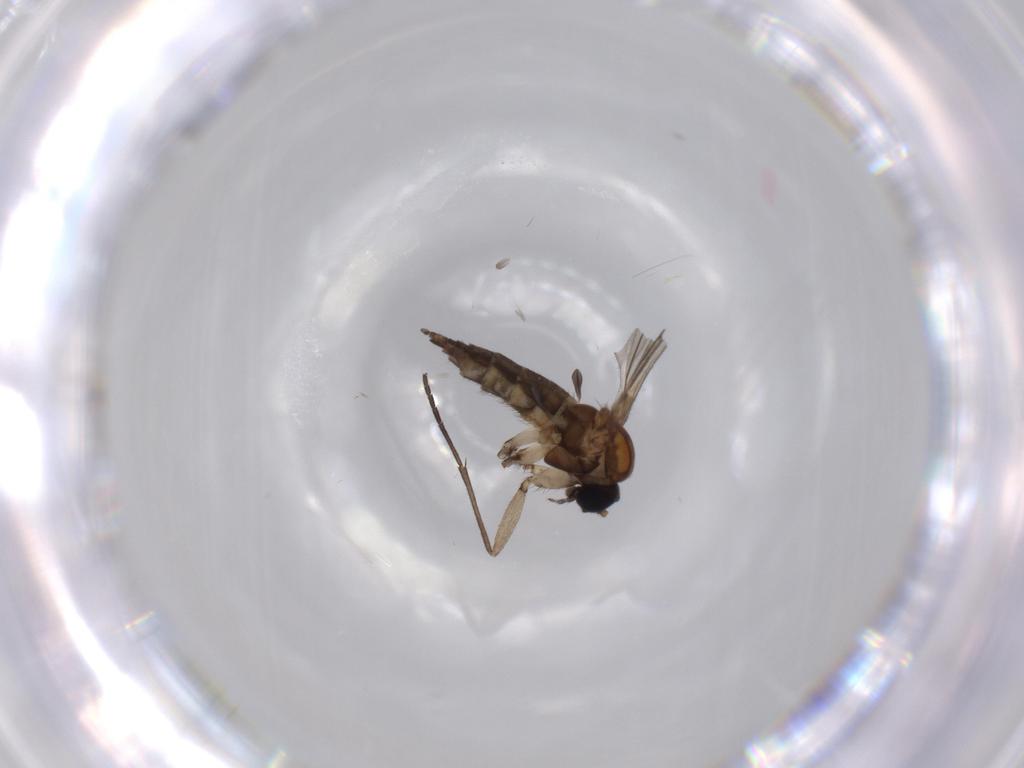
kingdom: Animalia
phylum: Arthropoda
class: Insecta
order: Diptera
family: Sciaridae
